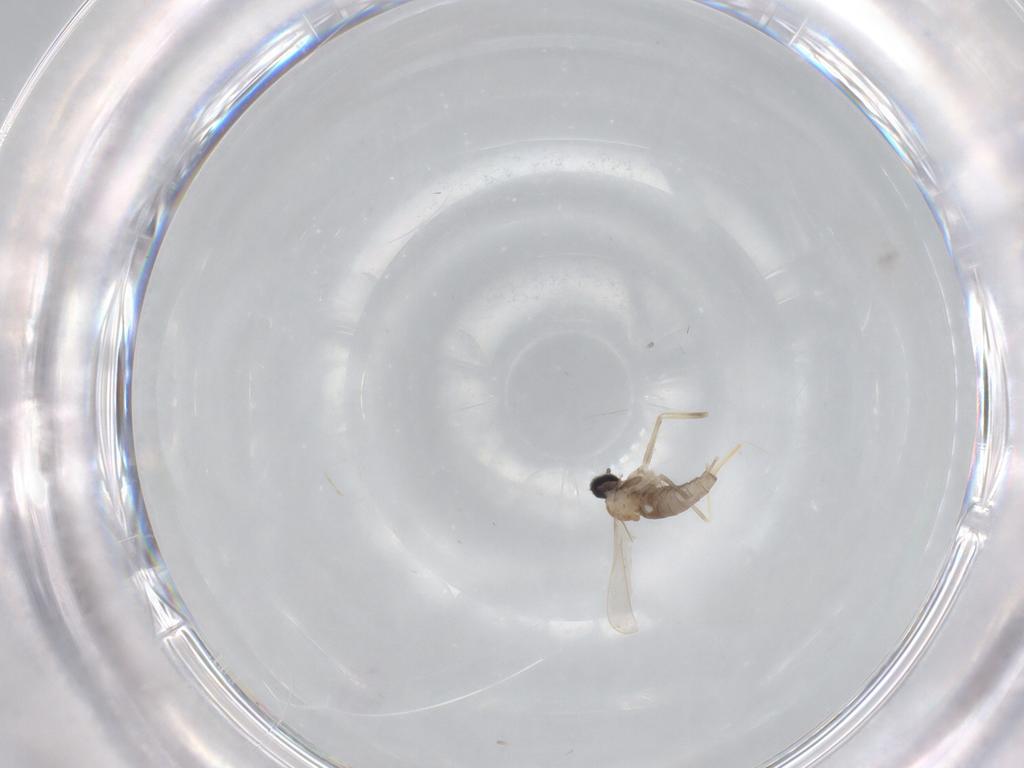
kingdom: Animalia
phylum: Arthropoda
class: Insecta
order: Diptera
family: Cecidomyiidae
